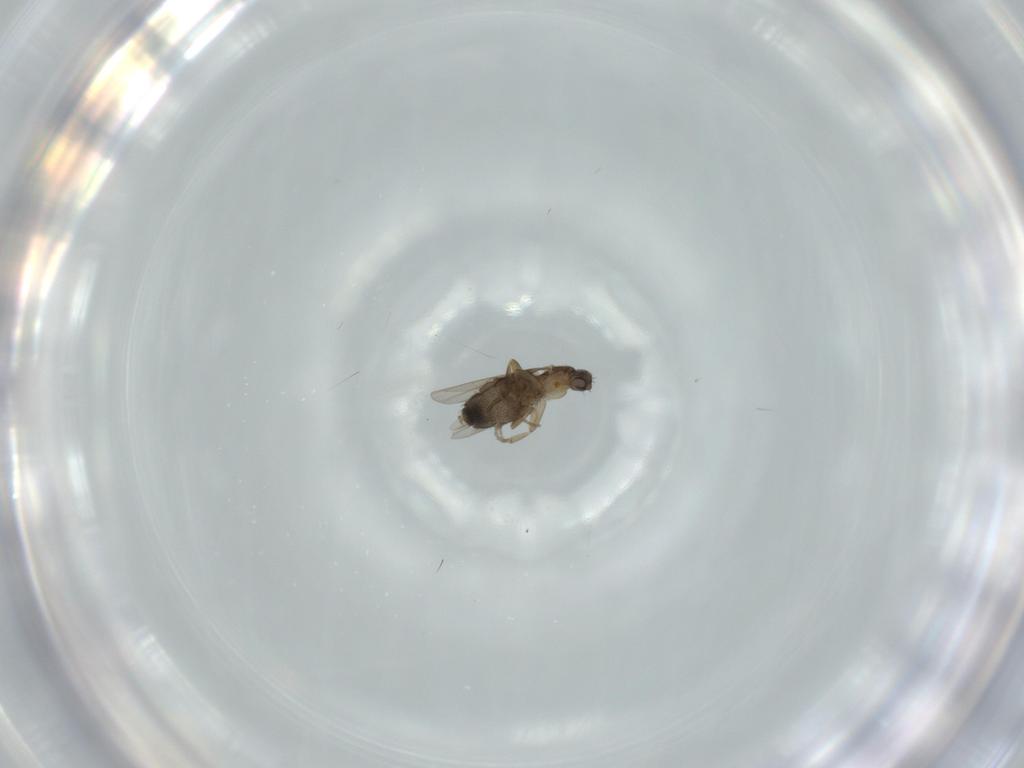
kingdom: Animalia
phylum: Arthropoda
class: Insecta
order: Diptera
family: Phoridae
